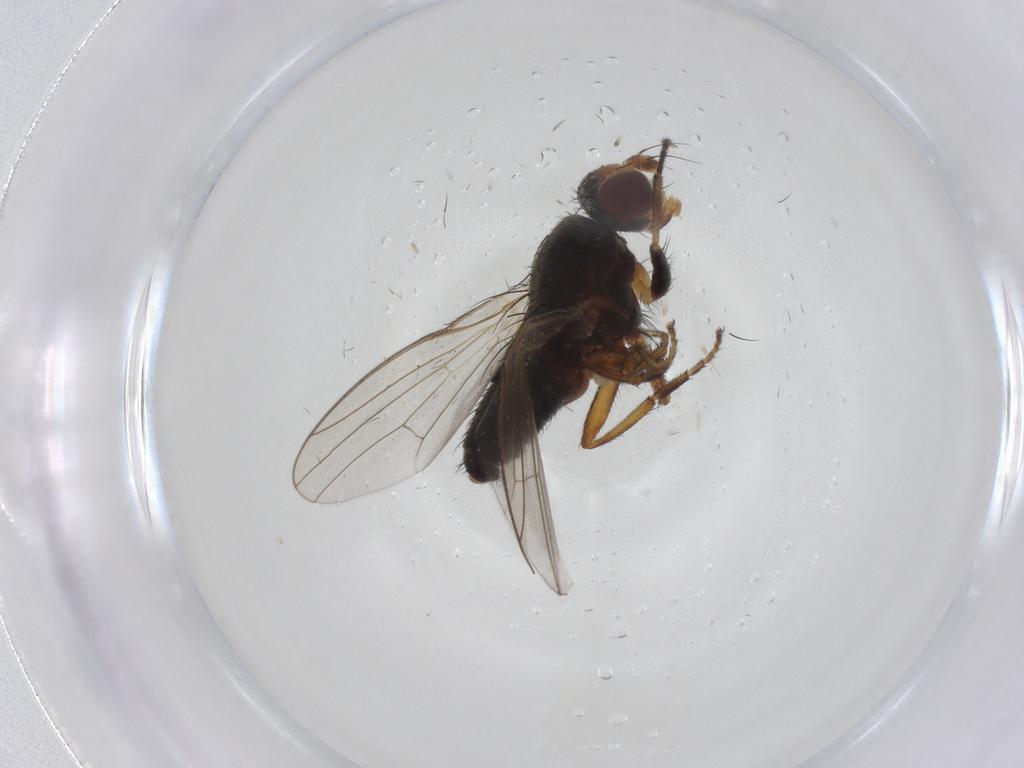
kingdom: Animalia
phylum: Arthropoda
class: Insecta
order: Diptera
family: Heleomyzidae
